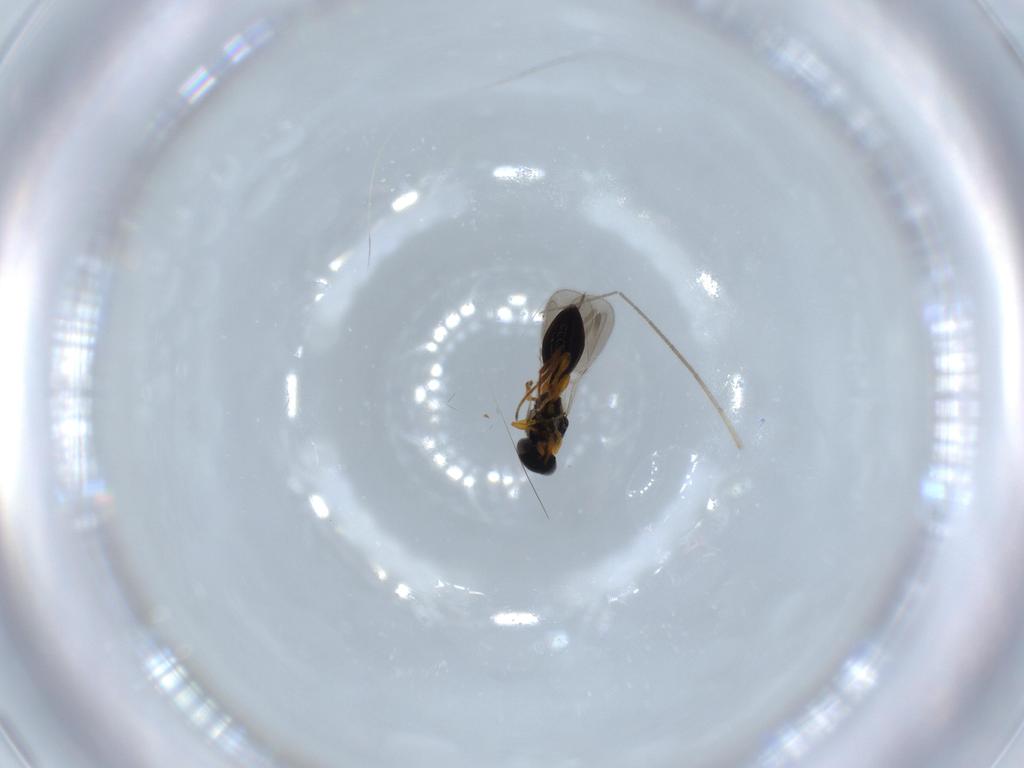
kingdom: Animalia
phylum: Arthropoda
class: Insecta
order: Hymenoptera
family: Platygastridae
